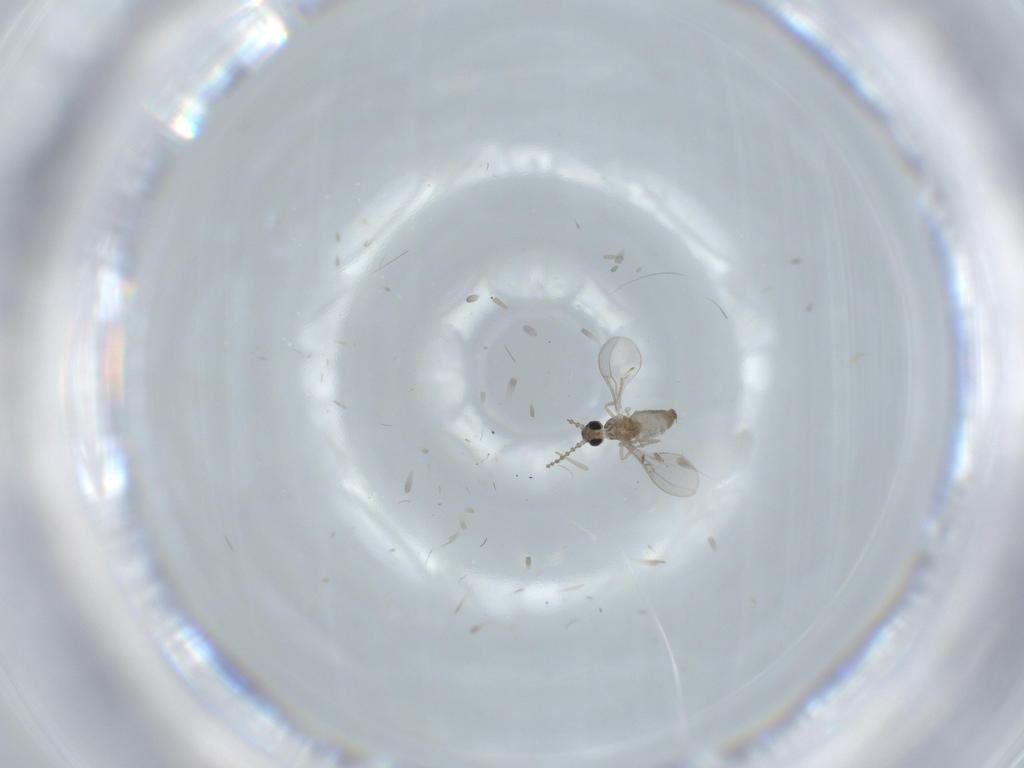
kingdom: Animalia
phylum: Arthropoda
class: Insecta
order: Diptera
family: Cecidomyiidae
